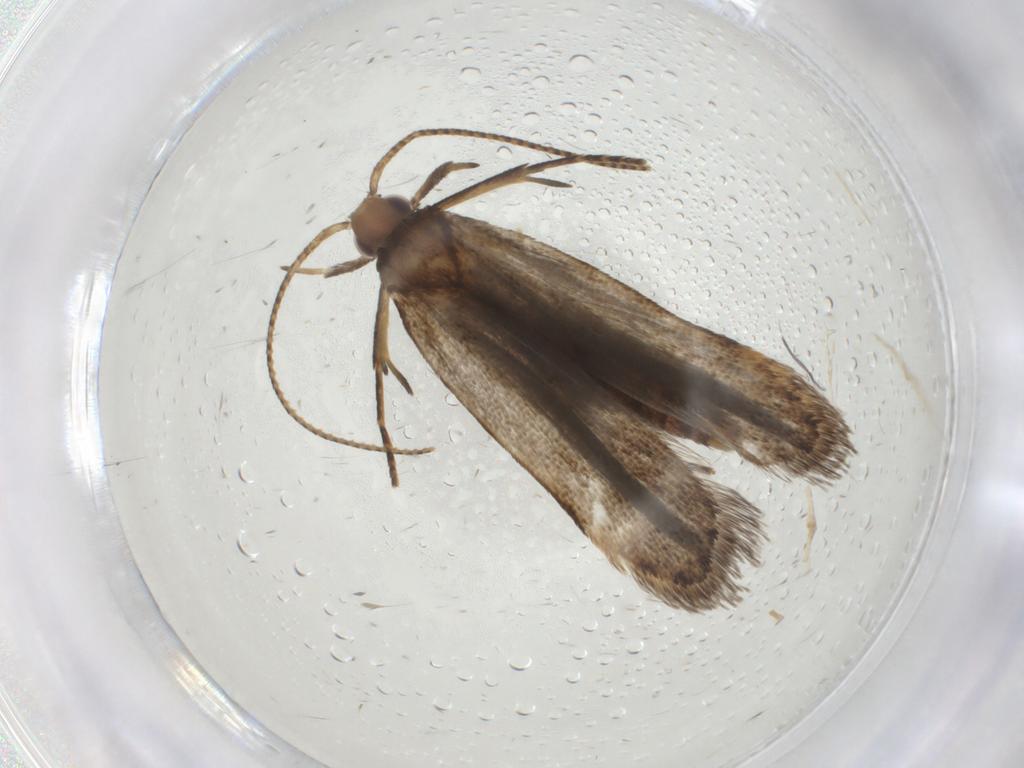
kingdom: Animalia
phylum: Arthropoda
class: Insecta
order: Lepidoptera
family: Gelechiidae
